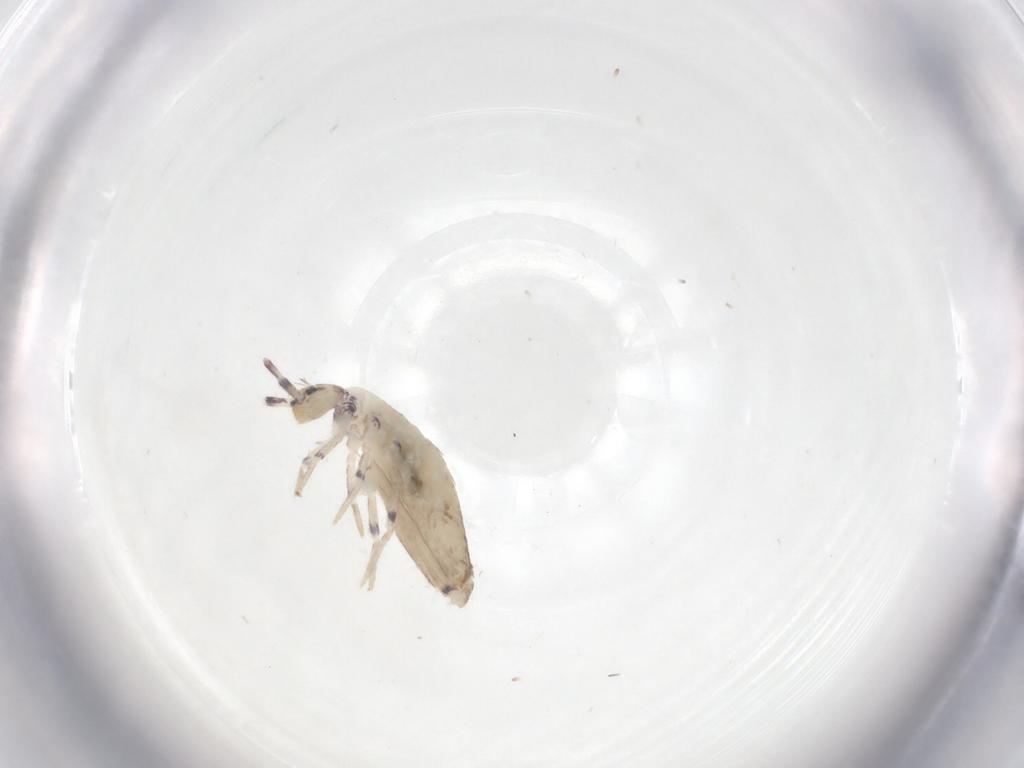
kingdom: Animalia
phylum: Arthropoda
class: Collembola
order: Entomobryomorpha
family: Entomobryidae
